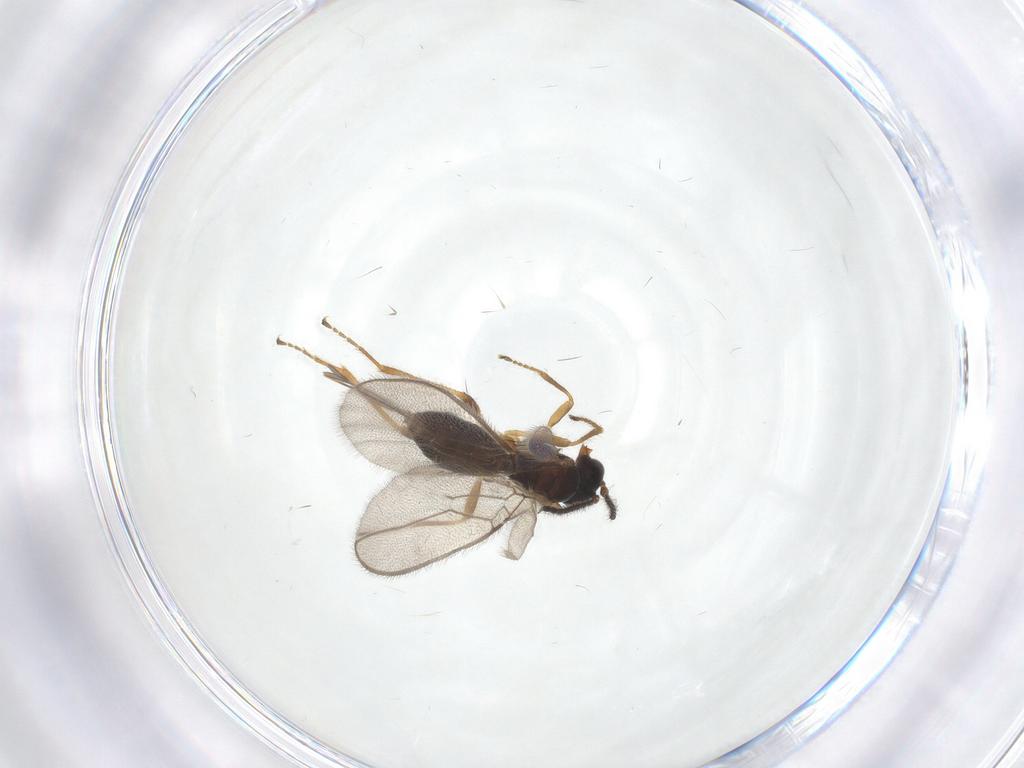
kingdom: Animalia
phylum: Arthropoda
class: Insecta
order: Hymenoptera
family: Braconidae
